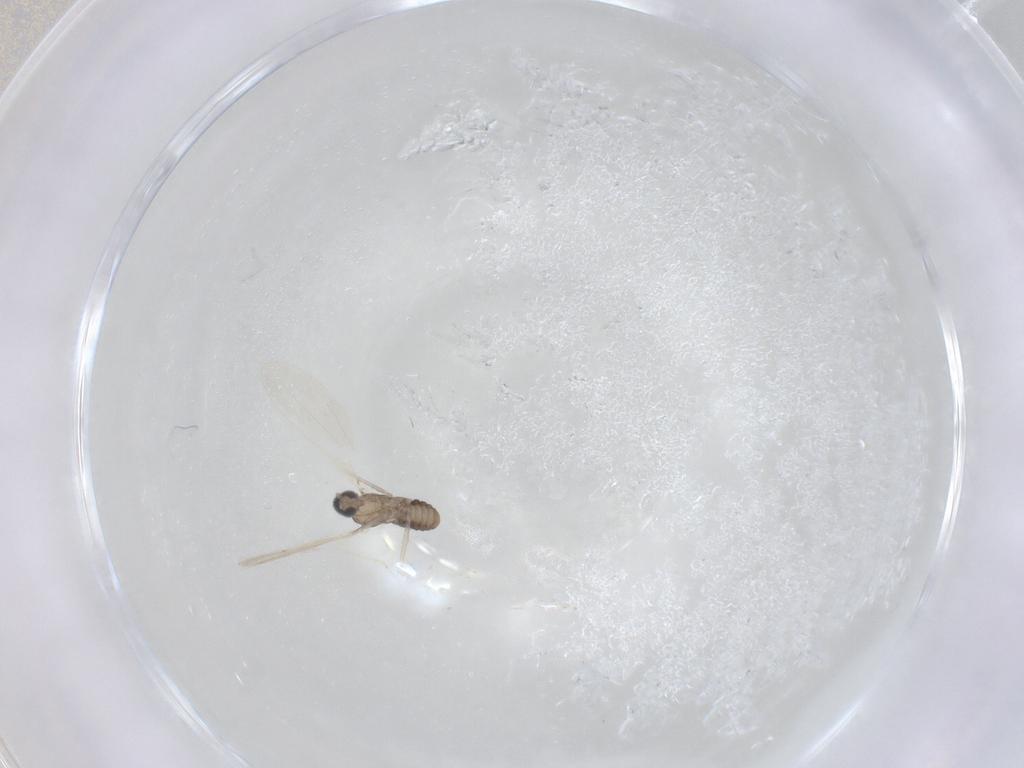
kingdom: Animalia
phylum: Arthropoda
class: Insecta
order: Diptera
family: Cecidomyiidae
